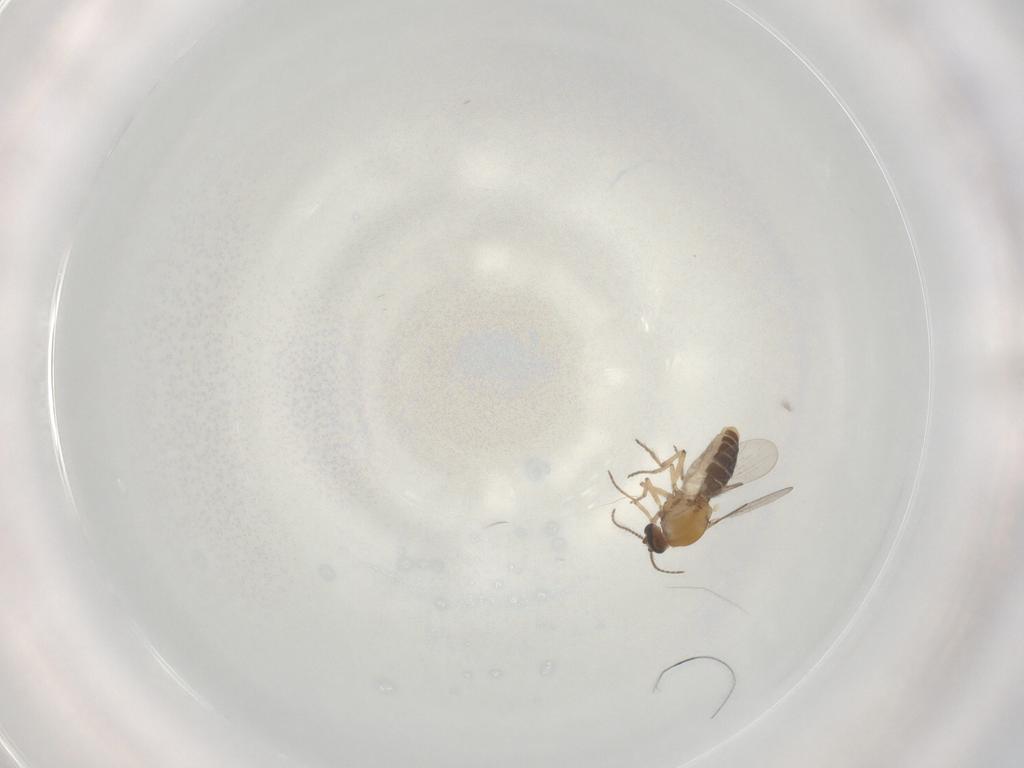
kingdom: Animalia
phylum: Arthropoda
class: Insecta
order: Diptera
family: Ceratopogonidae
